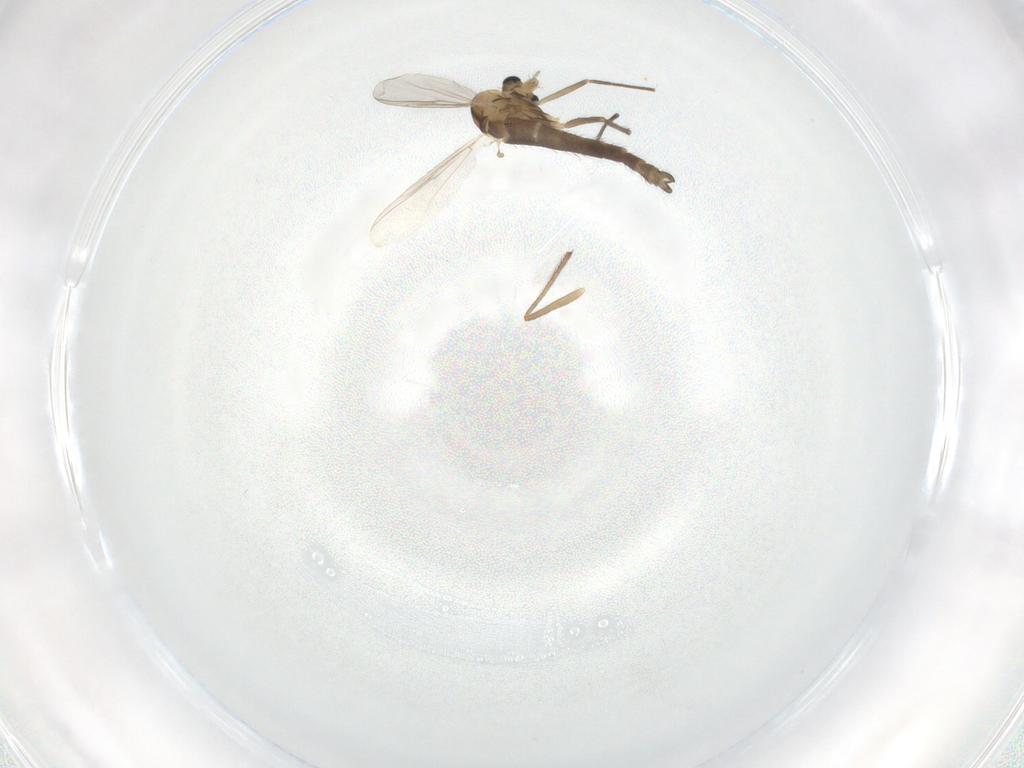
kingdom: Animalia
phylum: Arthropoda
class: Insecta
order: Diptera
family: Chironomidae
